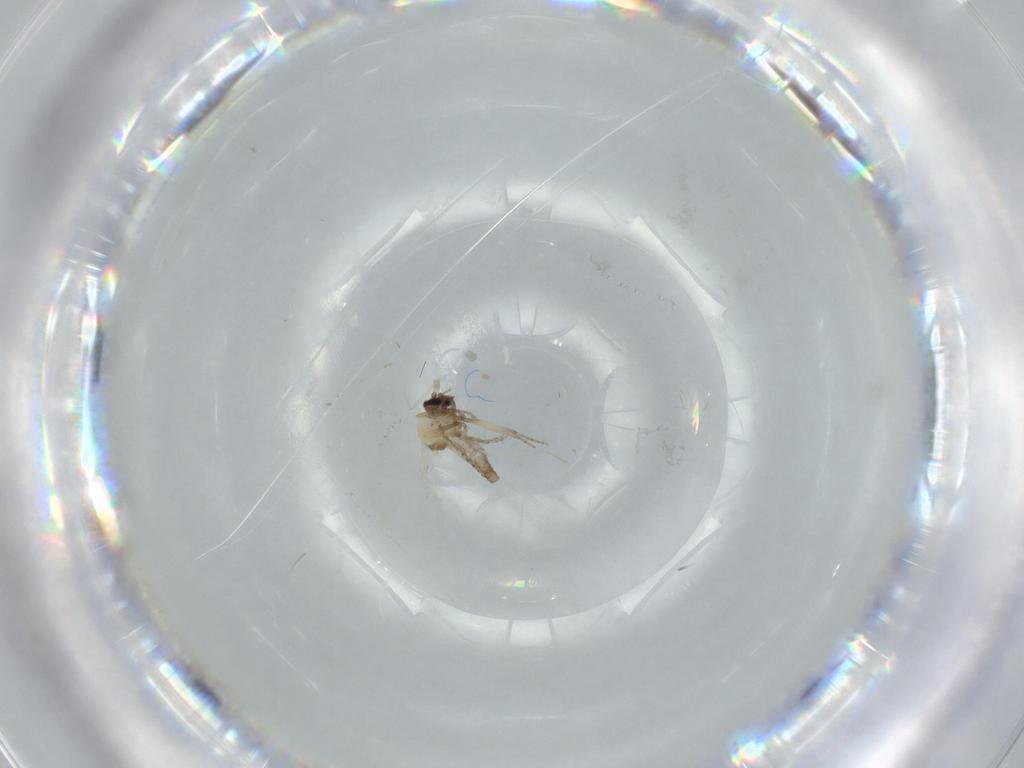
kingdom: Animalia
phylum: Arthropoda
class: Insecta
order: Diptera
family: Ceratopogonidae
